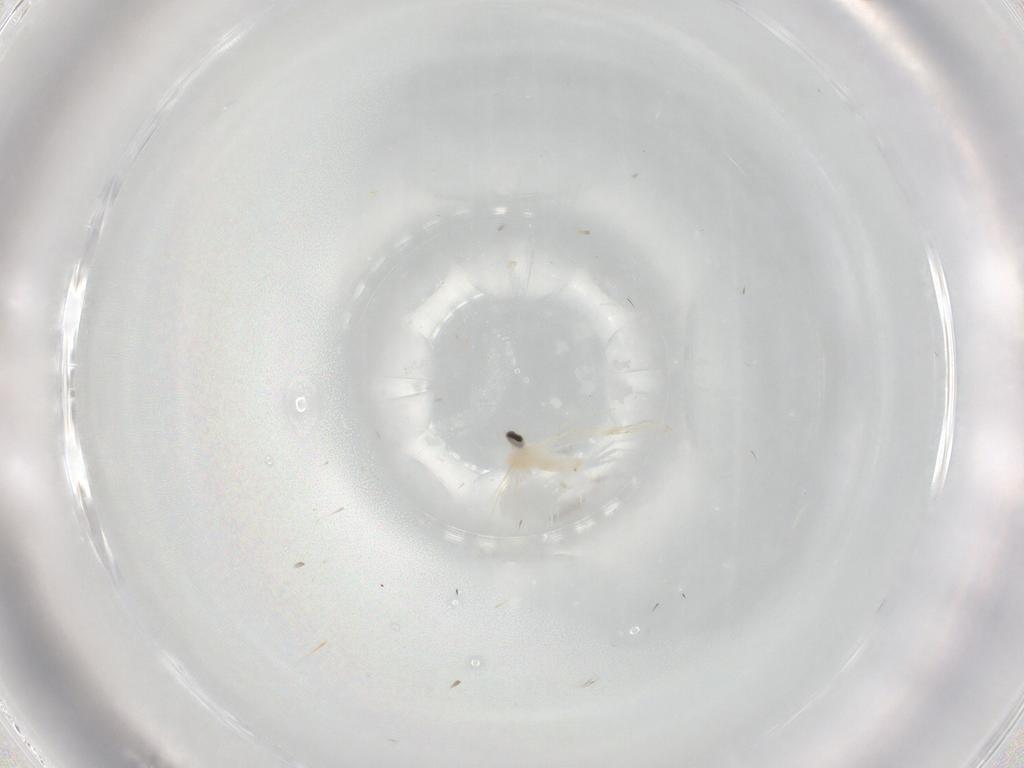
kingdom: Animalia
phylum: Arthropoda
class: Insecta
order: Diptera
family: Cecidomyiidae
